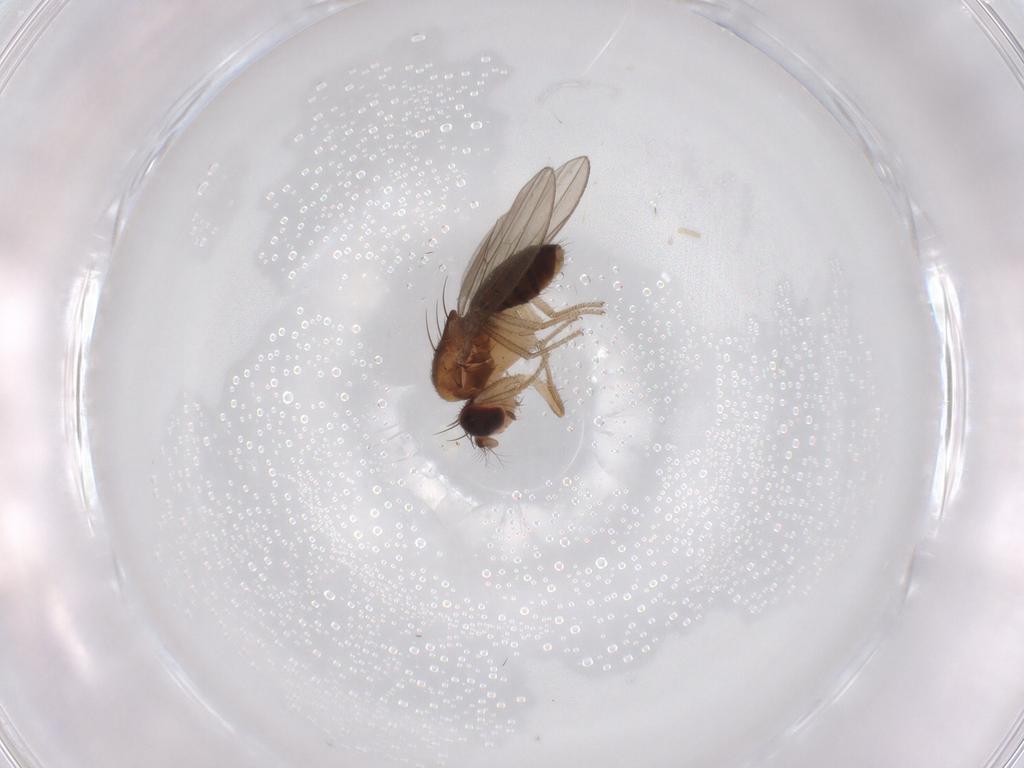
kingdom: Animalia
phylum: Arthropoda
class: Insecta
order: Diptera
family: Drosophilidae
